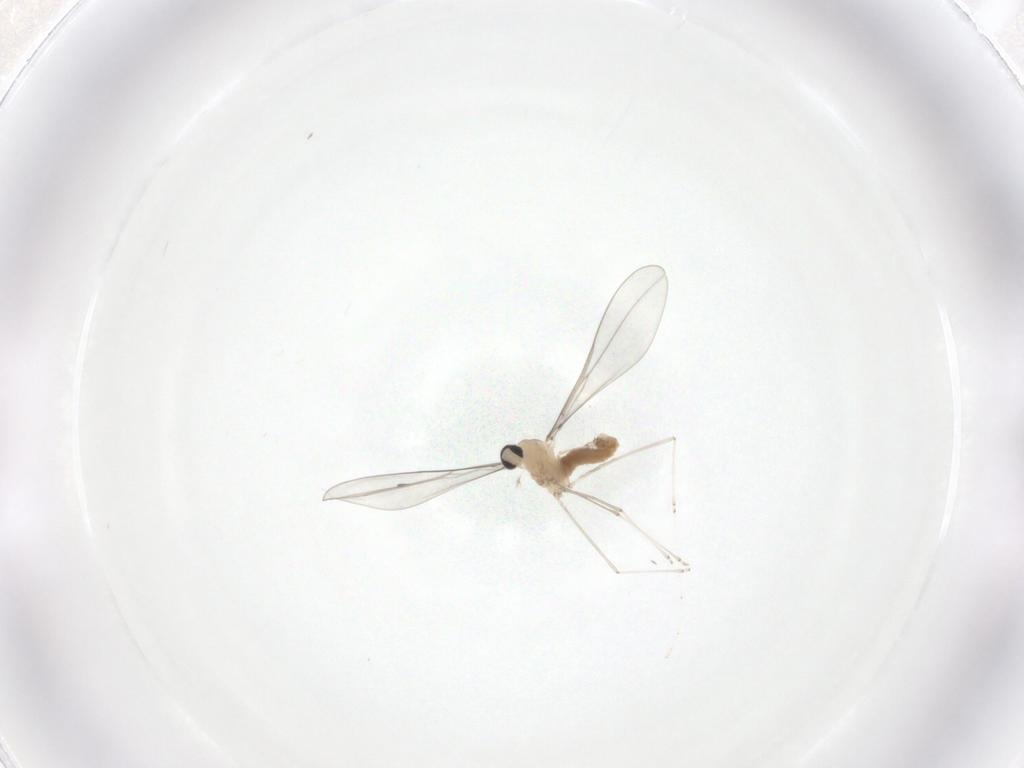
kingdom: Animalia
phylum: Arthropoda
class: Insecta
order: Diptera
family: Cecidomyiidae
